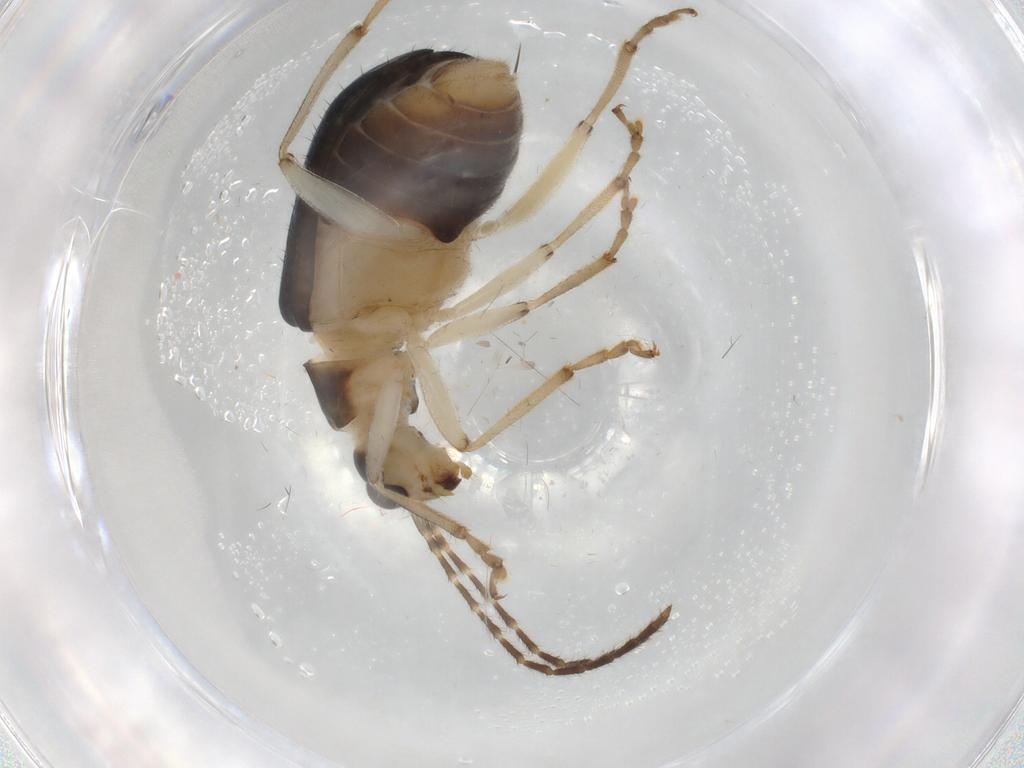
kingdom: Animalia
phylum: Arthropoda
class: Insecta
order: Coleoptera
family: Chrysomelidae
